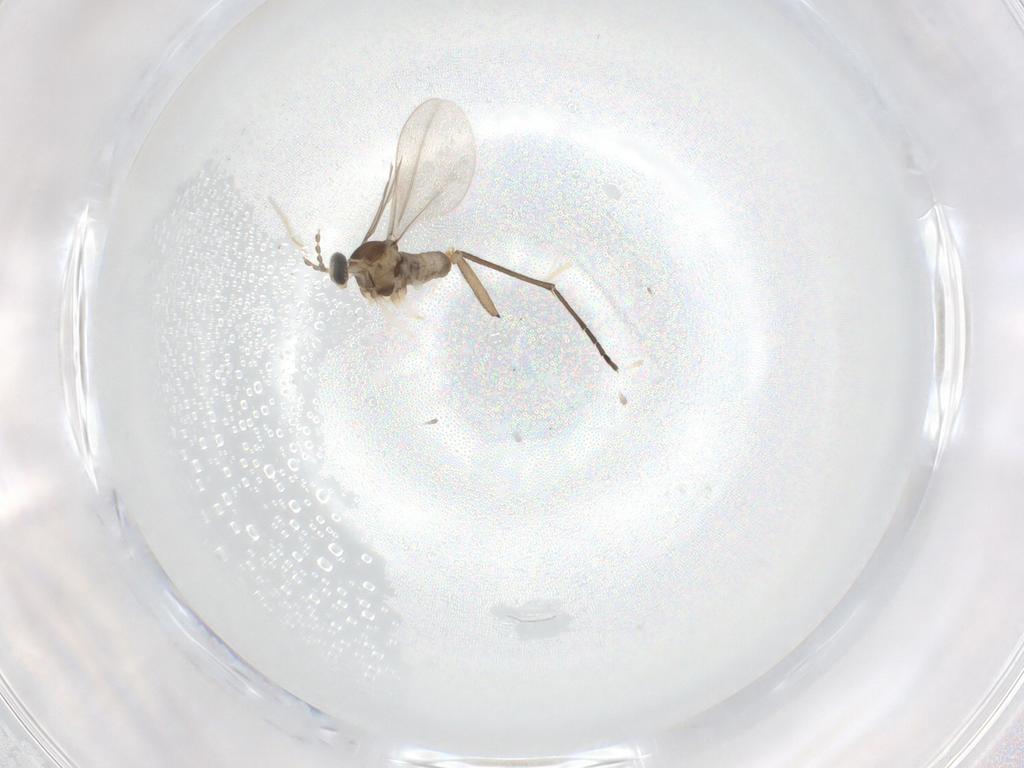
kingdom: Animalia
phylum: Arthropoda
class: Insecta
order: Diptera
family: Cecidomyiidae
